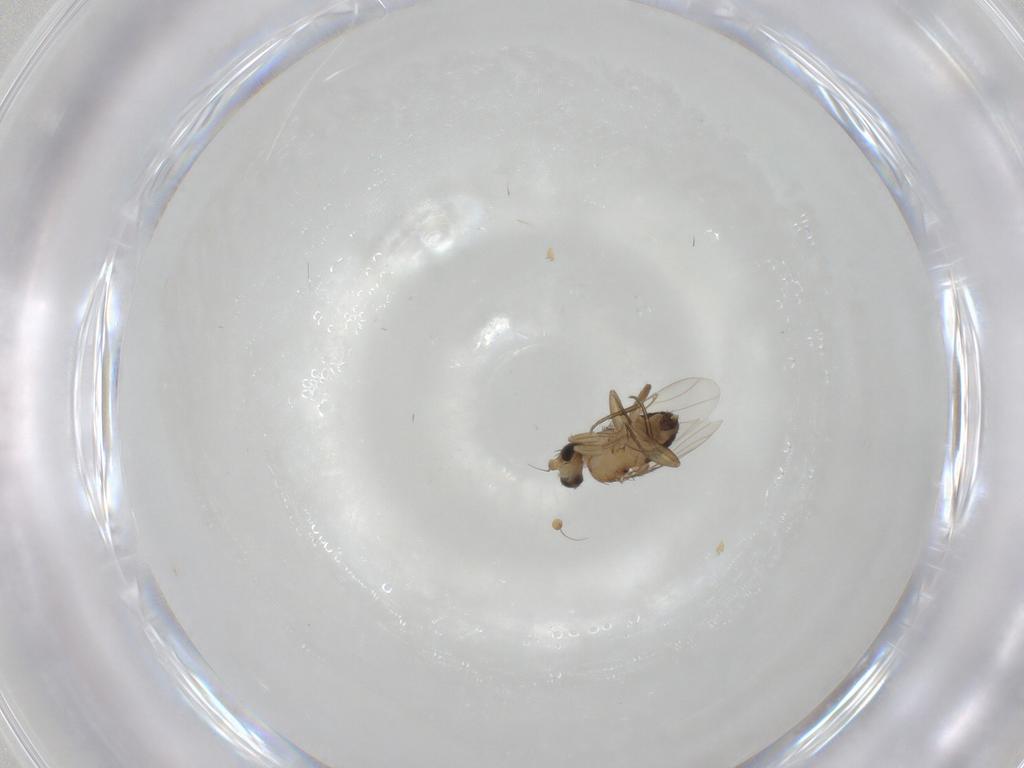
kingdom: Animalia
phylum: Arthropoda
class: Insecta
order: Diptera
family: Phoridae
